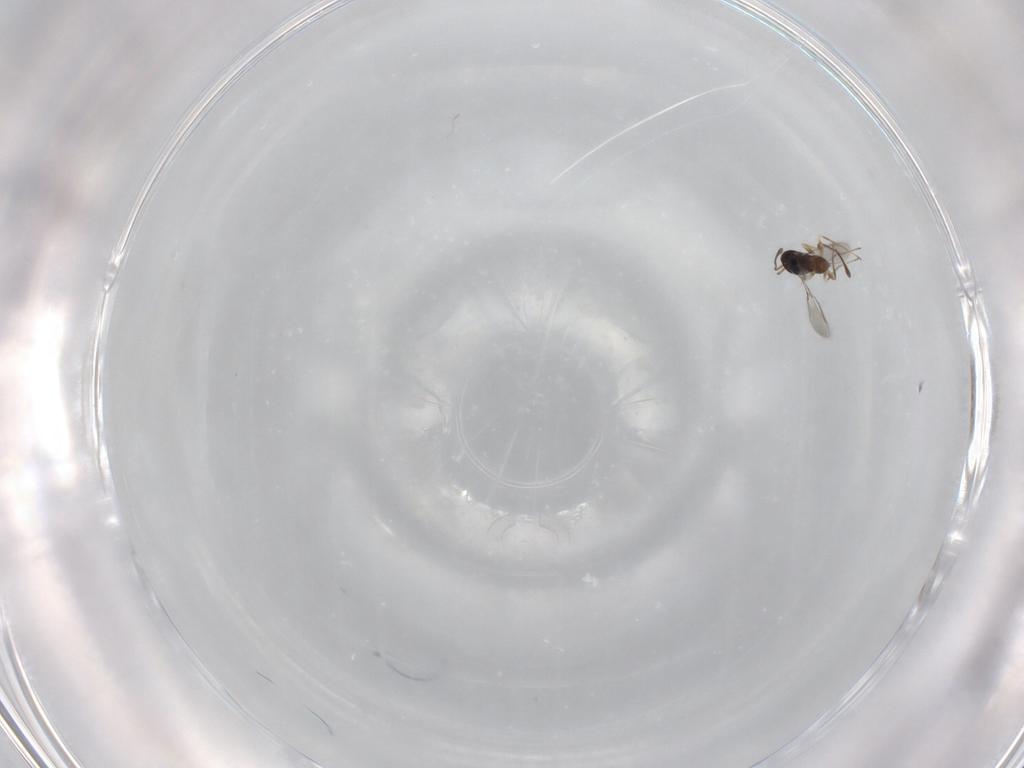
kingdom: Animalia
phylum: Arthropoda
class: Insecta
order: Hymenoptera
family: Mymaridae
